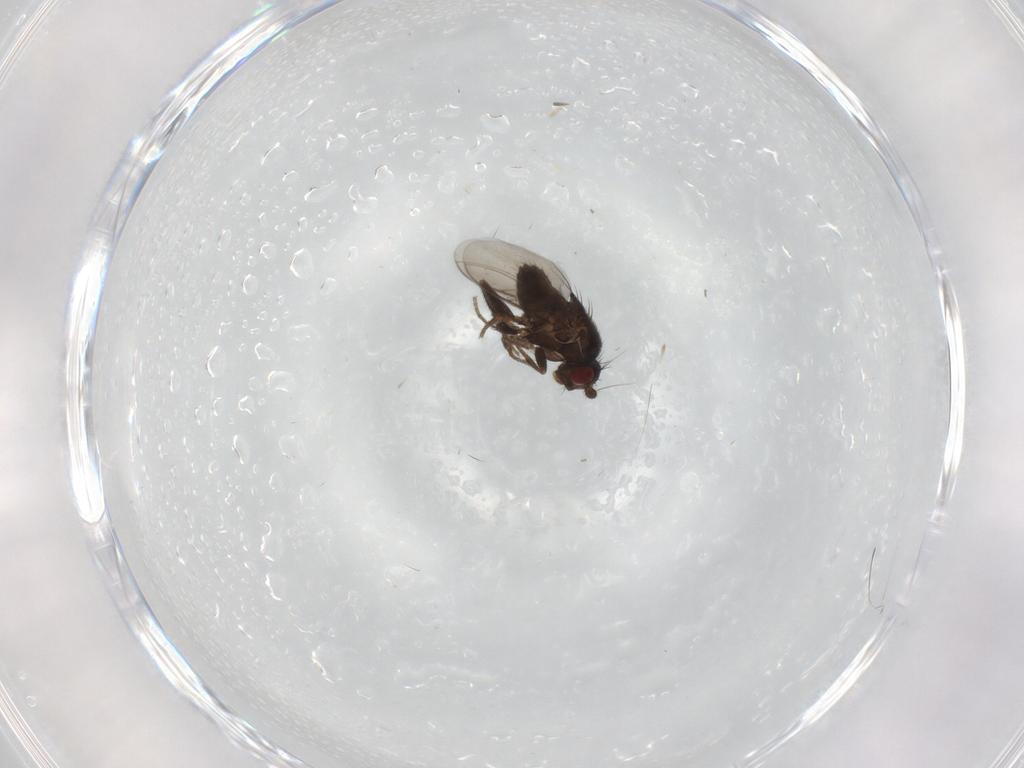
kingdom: Animalia
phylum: Arthropoda
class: Insecta
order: Diptera
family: Sphaeroceridae
